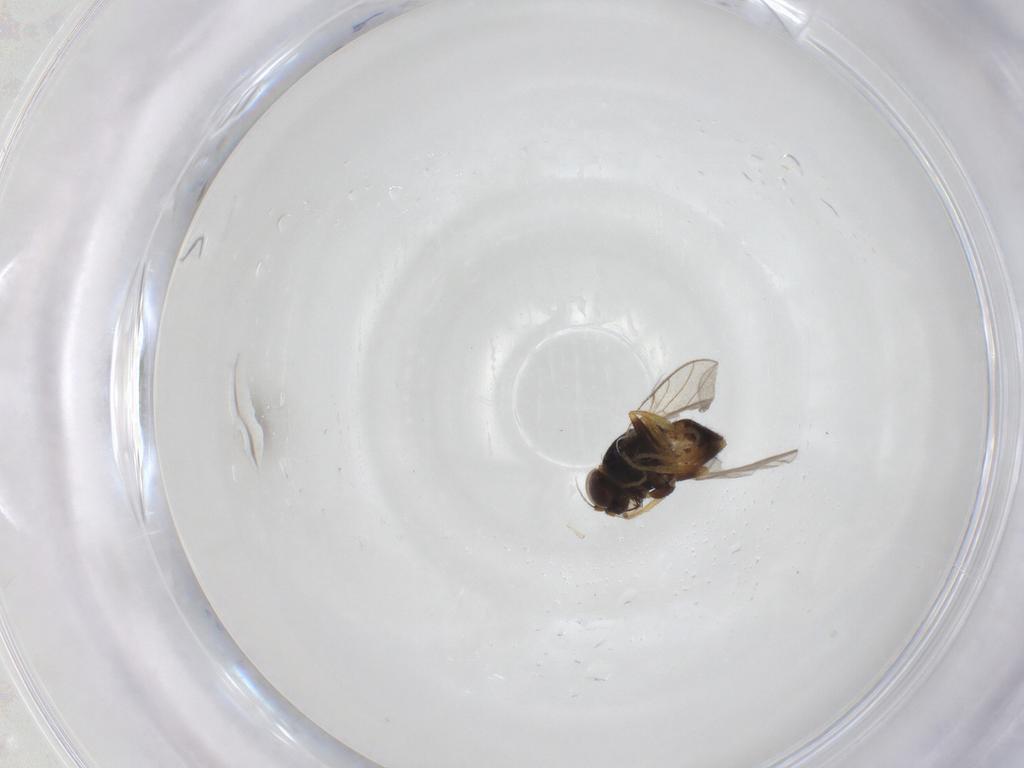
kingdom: Animalia
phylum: Arthropoda
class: Insecta
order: Diptera
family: Chloropidae
